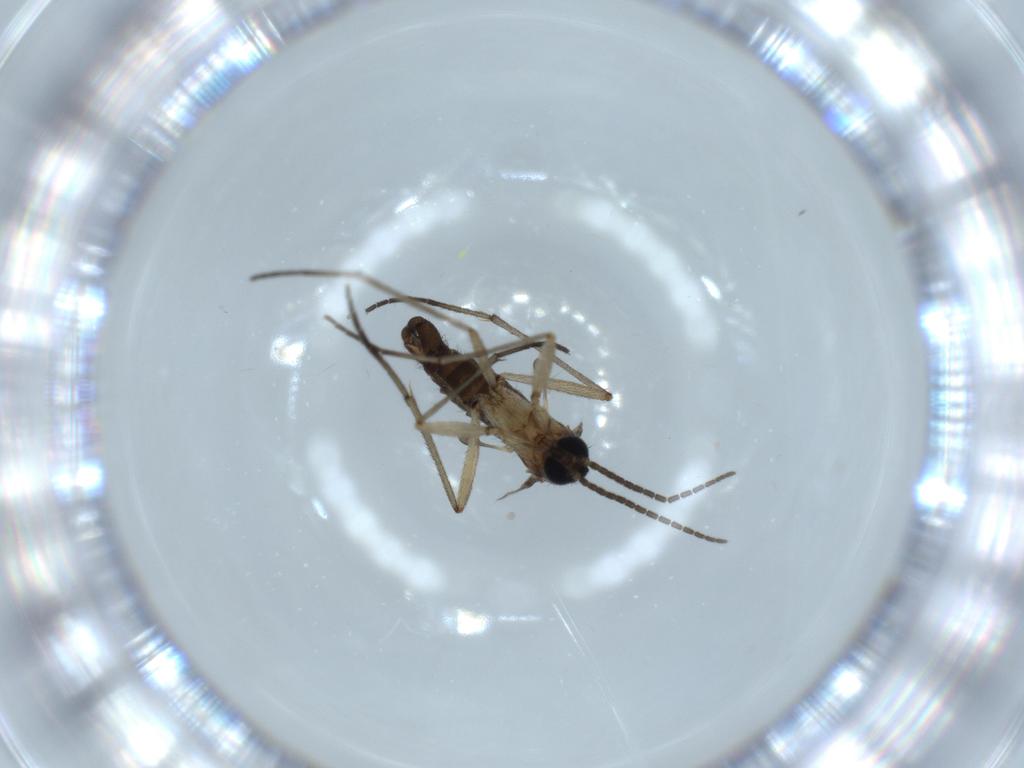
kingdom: Animalia
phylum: Arthropoda
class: Insecta
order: Diptera
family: Sciaridae
